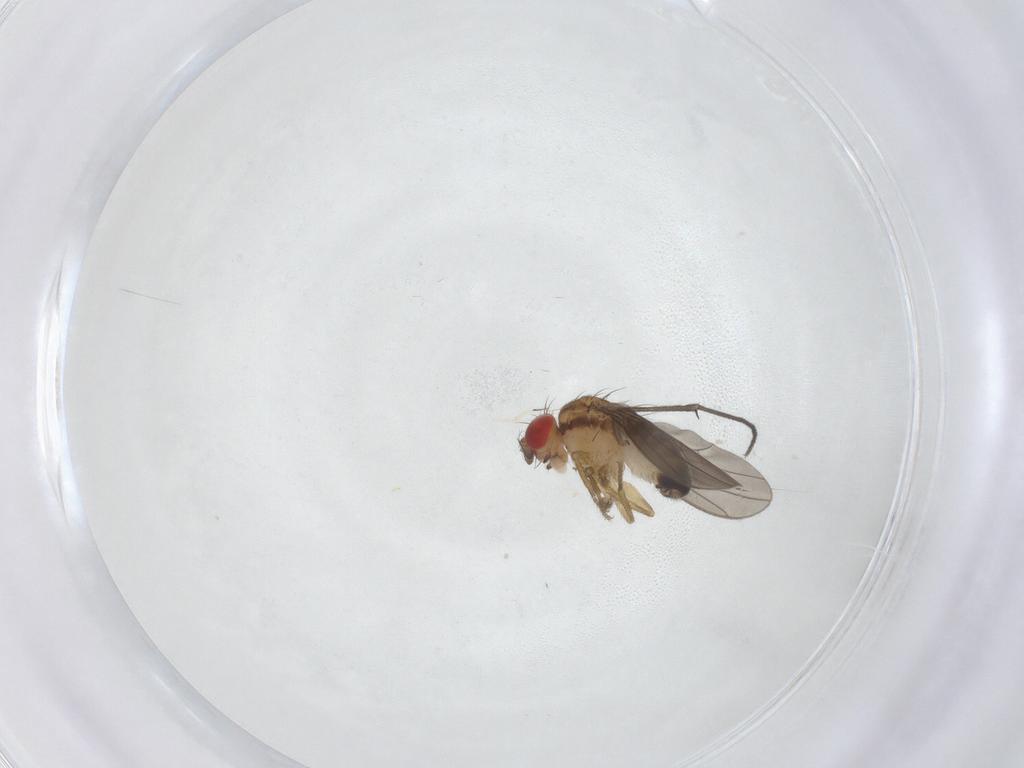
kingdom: Animalia
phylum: Arthropoda
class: Insecta
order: Diptera
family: Drosophilidae
